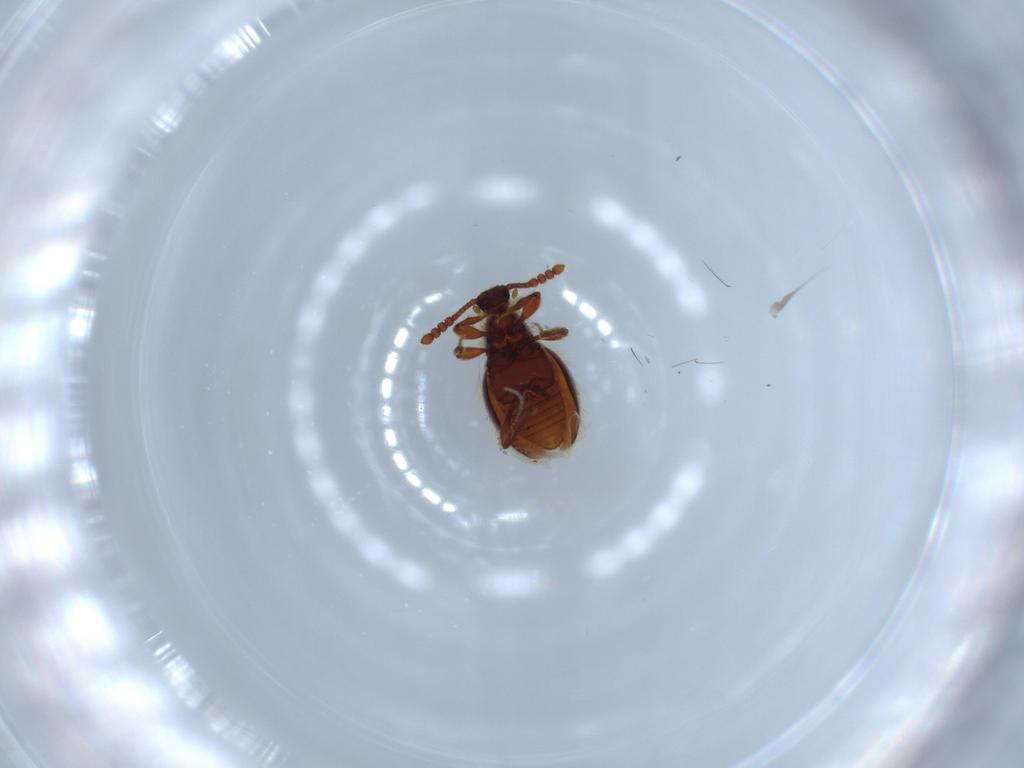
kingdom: Animalia
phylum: Arthropoda
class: Insecta
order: Coleoptera
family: Staphylinidae
